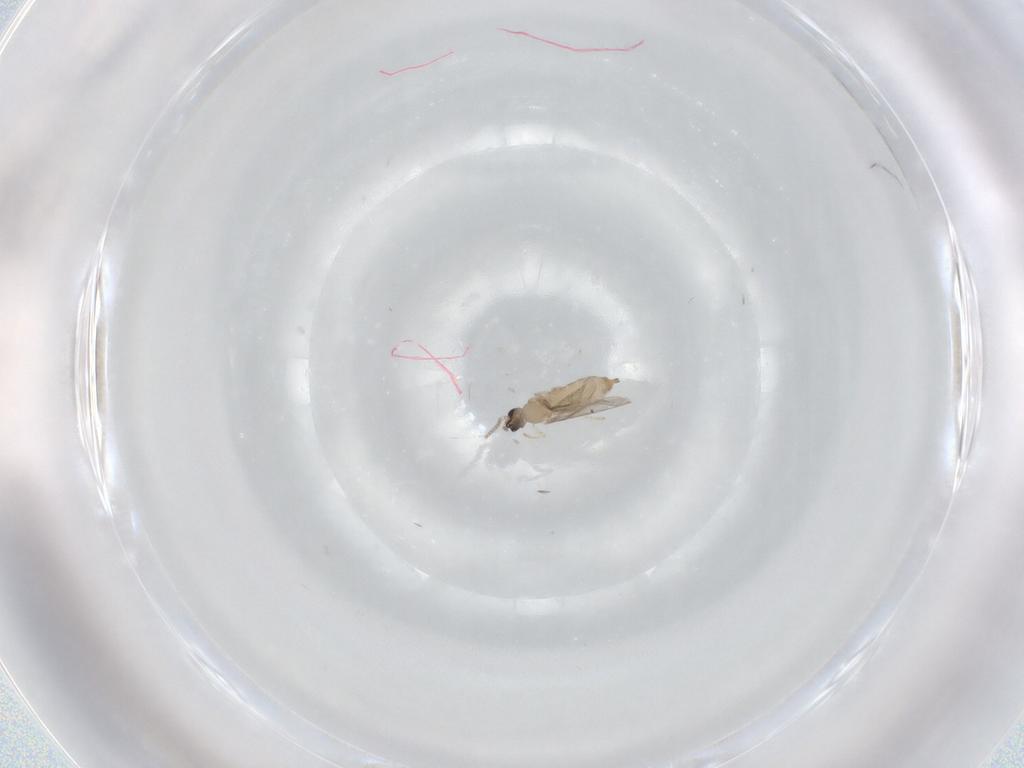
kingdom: Animalia
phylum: Arthropoda
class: Insecta
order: Diptera
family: Cecidomyiidae
